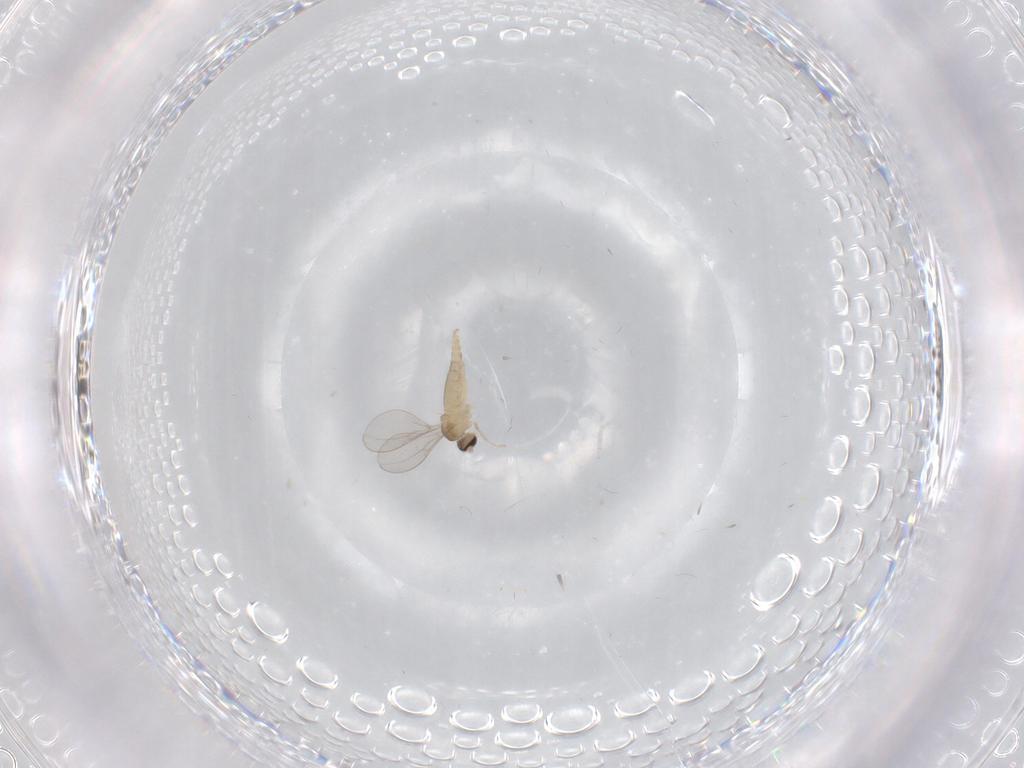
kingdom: Animalia
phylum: Arthropoda
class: Insecta
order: Diptera
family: Cecidomyiidae
